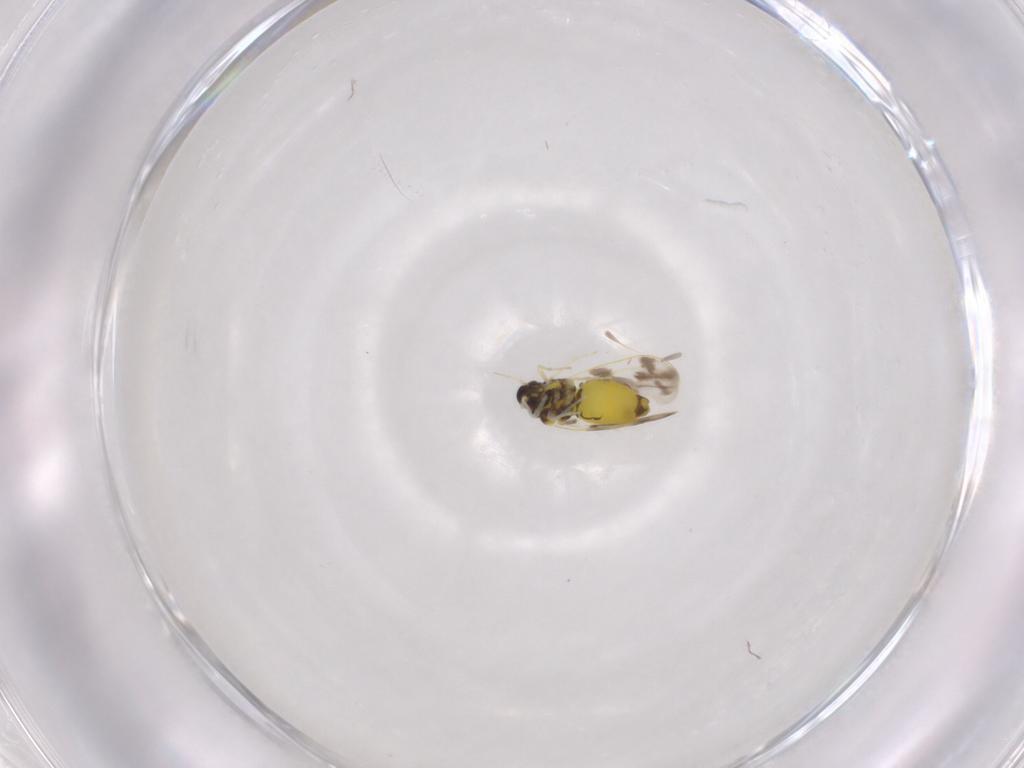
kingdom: Animalia
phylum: Arthropoda
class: Insecta
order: Hemiptera
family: Aleyrodidae
